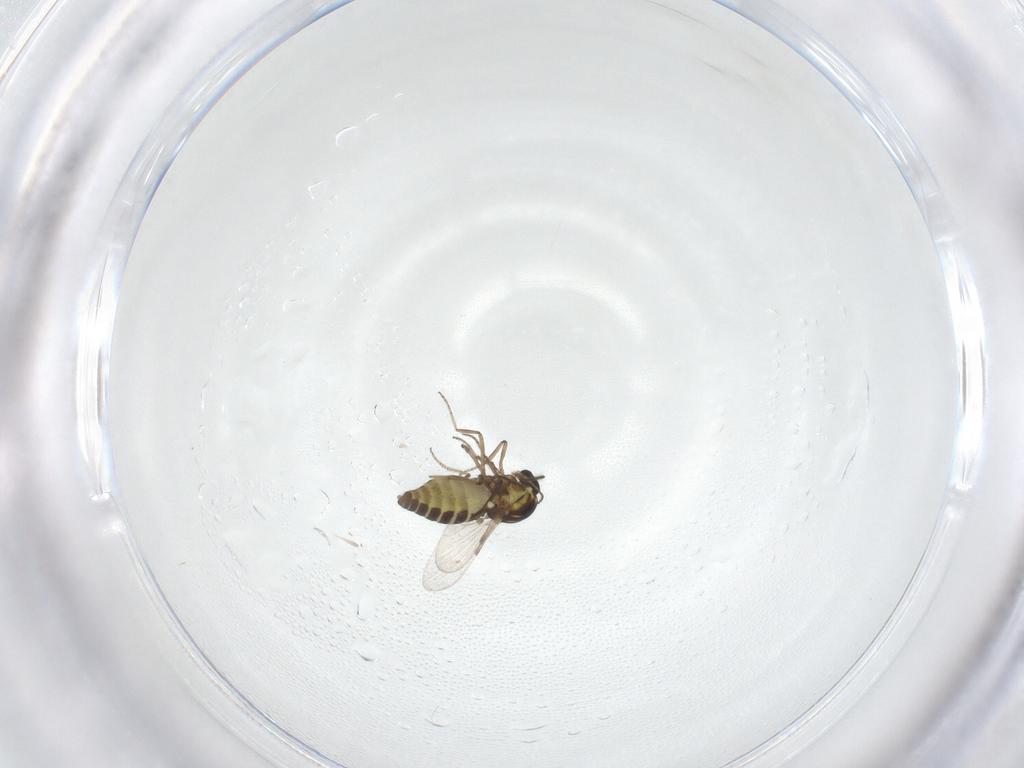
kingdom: Animalia
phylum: Arthropoda
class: Insecta
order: Diptera
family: Ceratopogonidae
